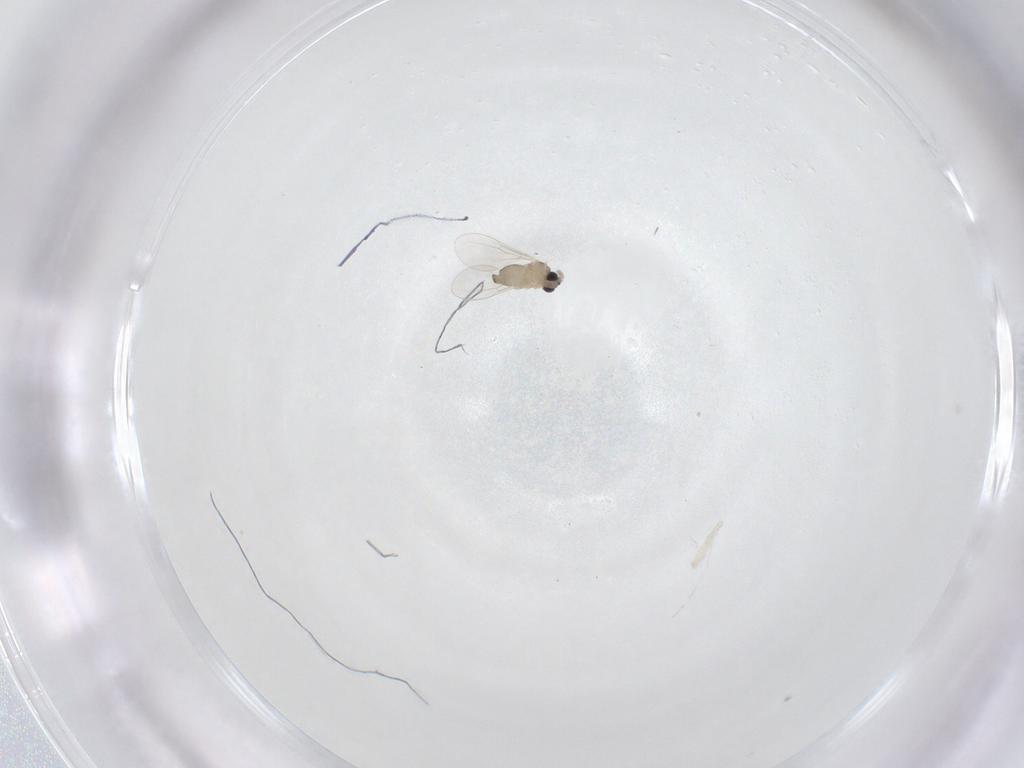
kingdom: Animalia
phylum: Arthropoda
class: Insecta
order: Diptera
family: Cecidomyiidae
